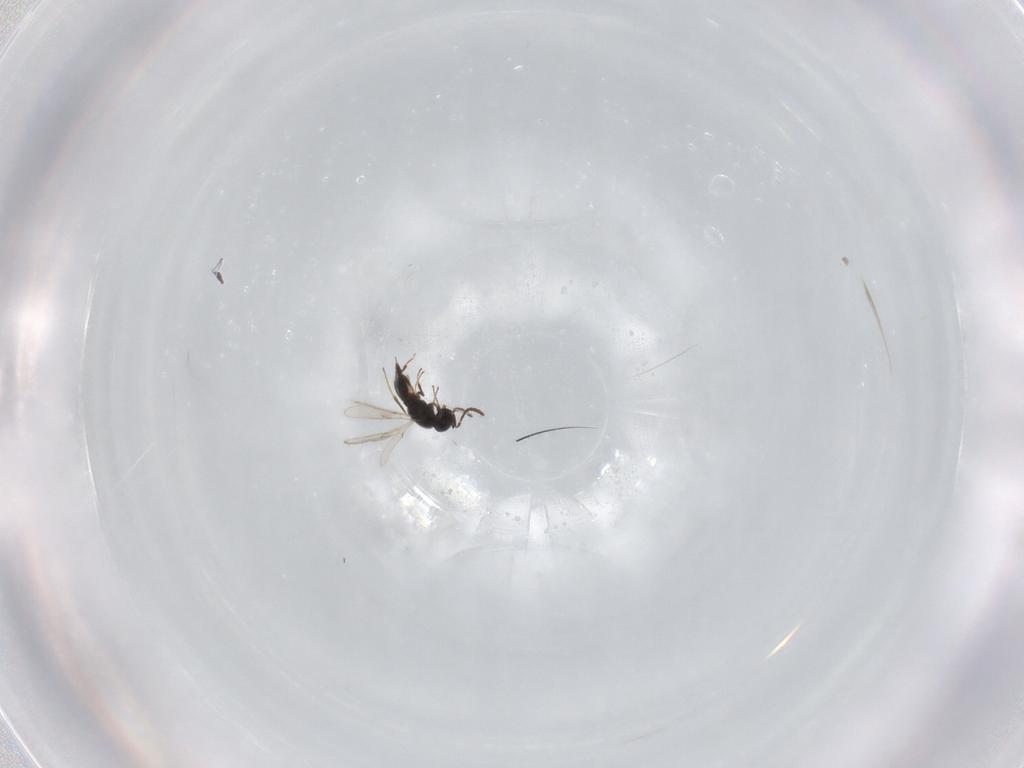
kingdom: Animalia
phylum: Arthropoda
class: Insecta
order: Hymenoptera
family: Scelionidae
